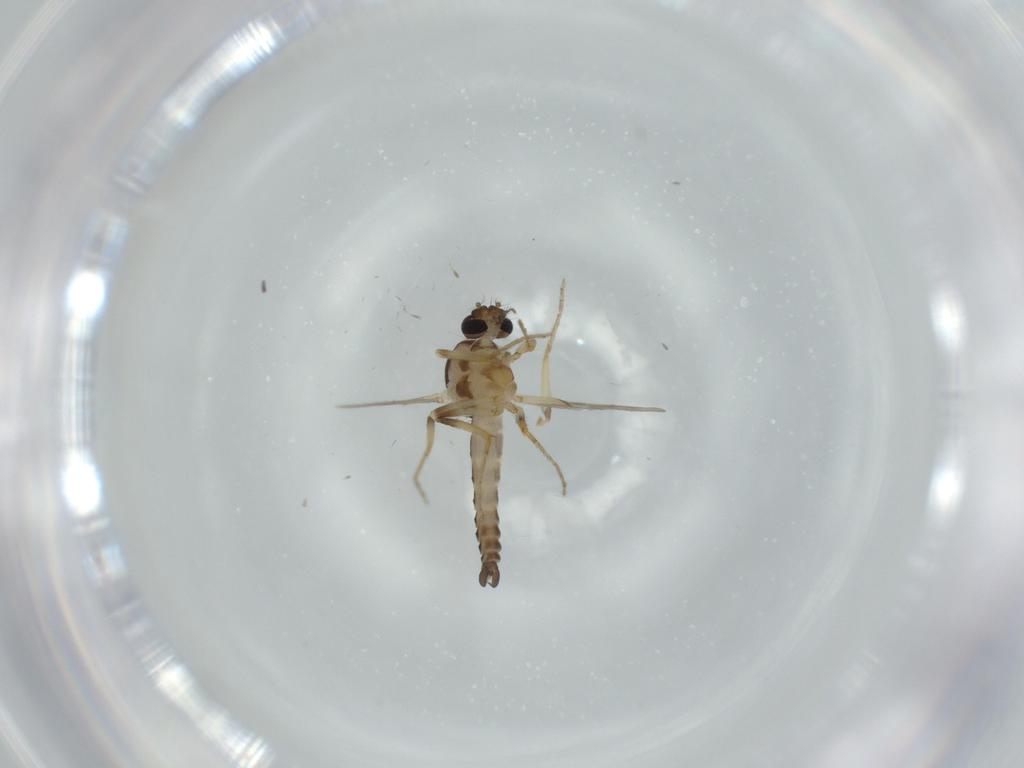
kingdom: Animalia
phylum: Arthropoda
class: Insecta
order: Diptera
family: Ceratopogonidae
